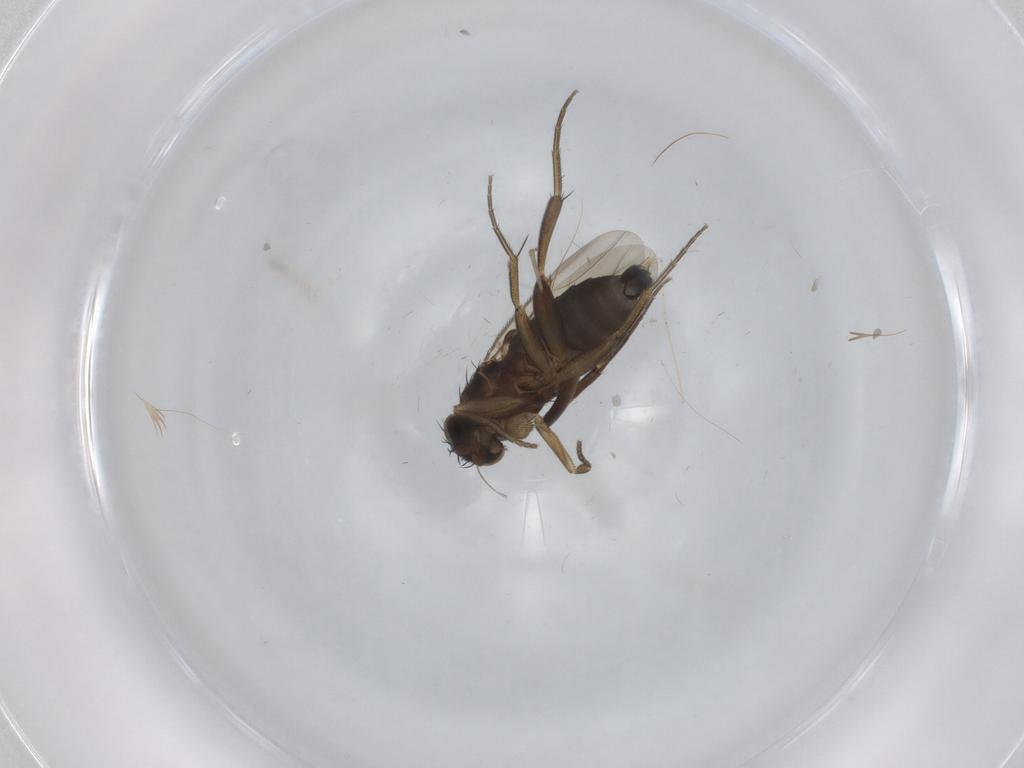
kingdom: Animalia
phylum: Arthropoda
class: Insecta
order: Diptera
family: Phoridae
